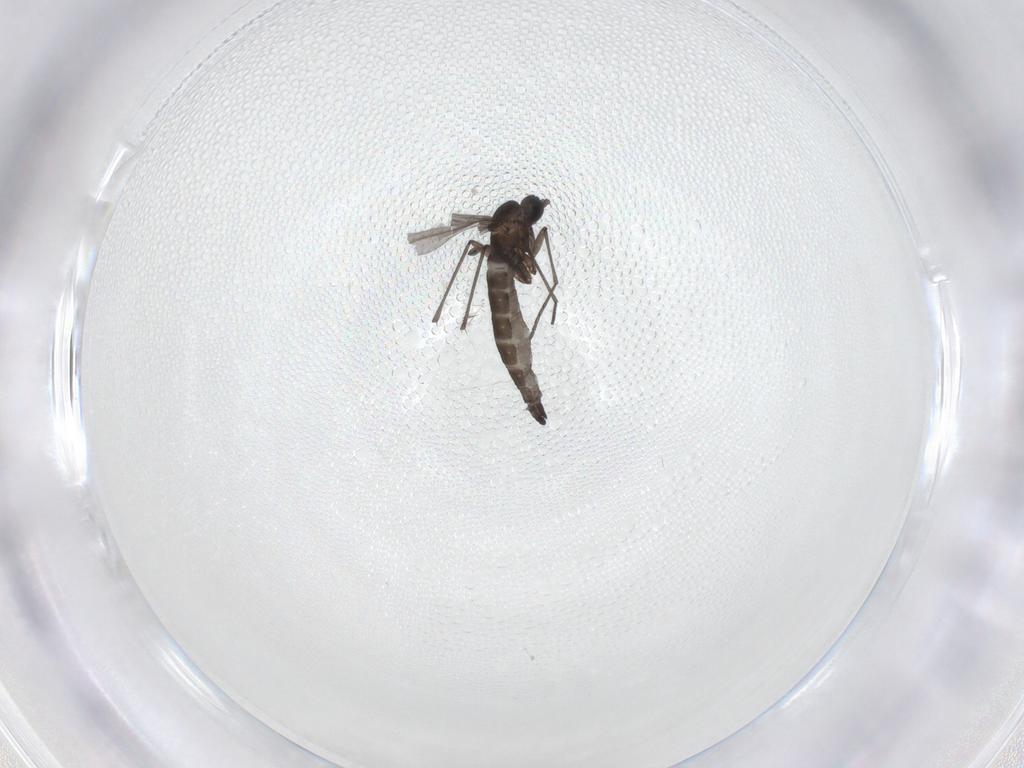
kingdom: Animalia
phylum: Arthropoda
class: Insecta
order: Diptera
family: Sciaridae
